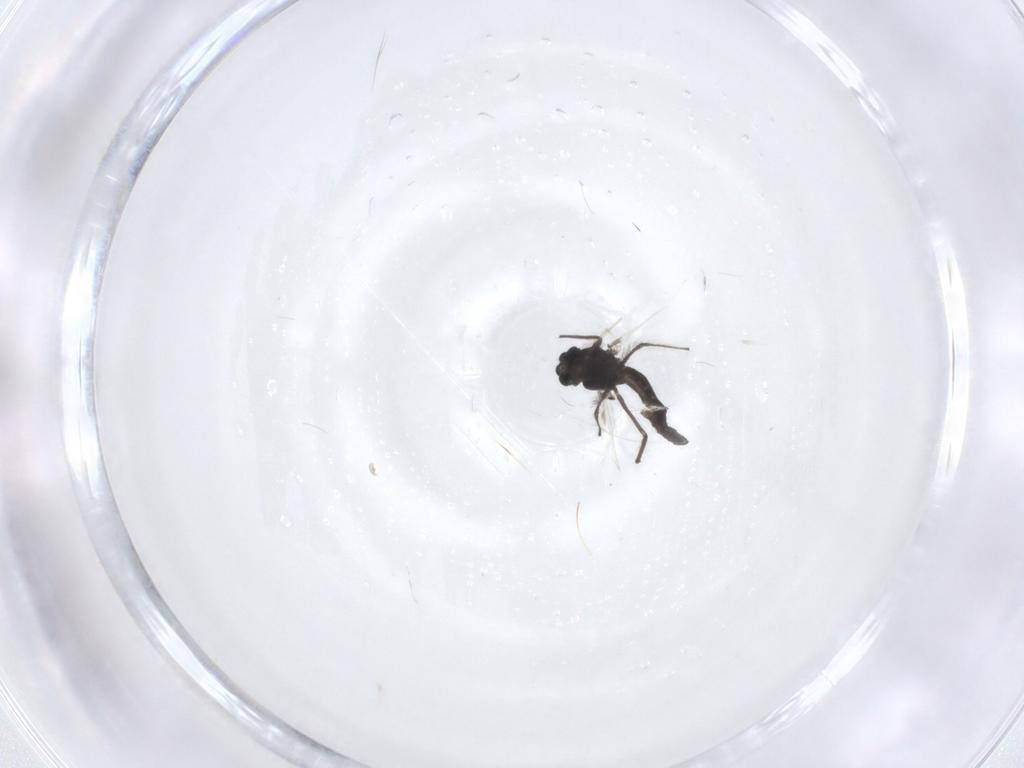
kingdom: Animalia
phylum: Arthropoda
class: Insecta
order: Diptera
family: Chironomidae
